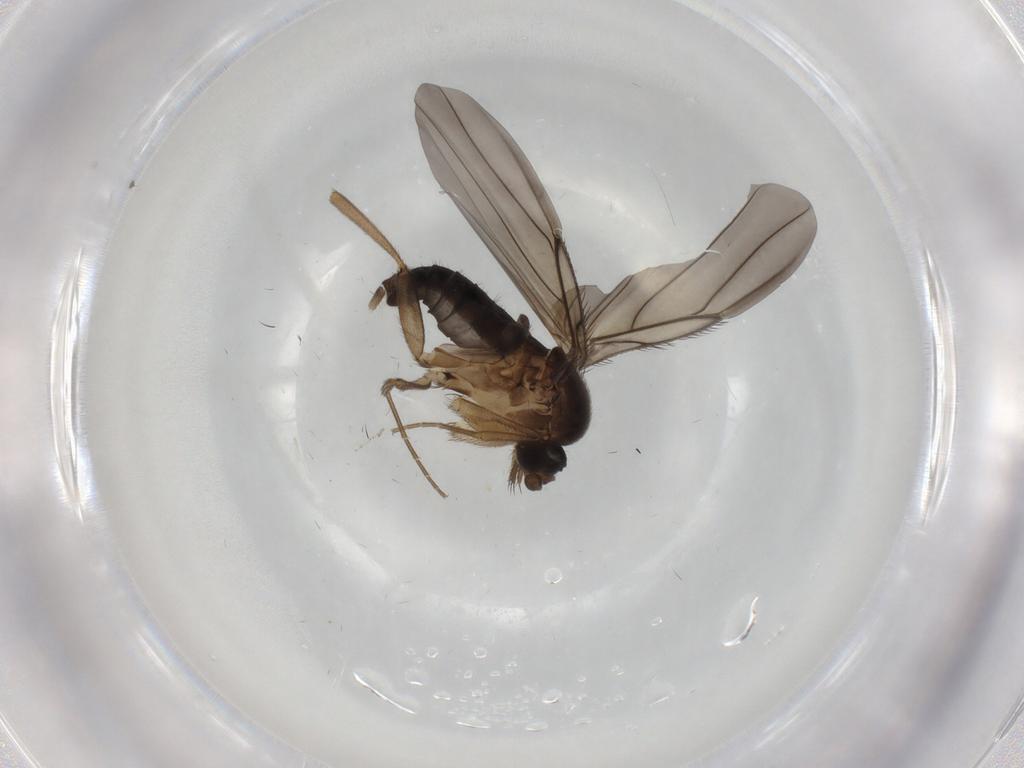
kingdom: Animalia
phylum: Arthropoda
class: Insecta
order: Diptera
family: Phoridae
